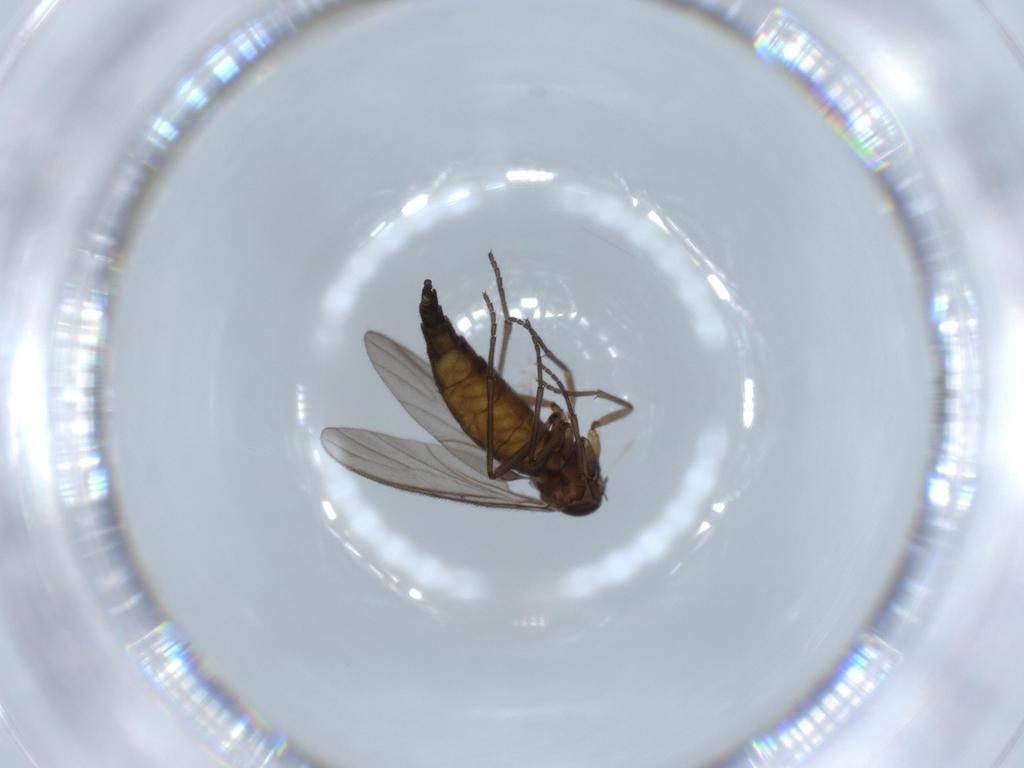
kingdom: Animalia
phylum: Arthropoda
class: Insecta
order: Diptera
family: Sciaridae
